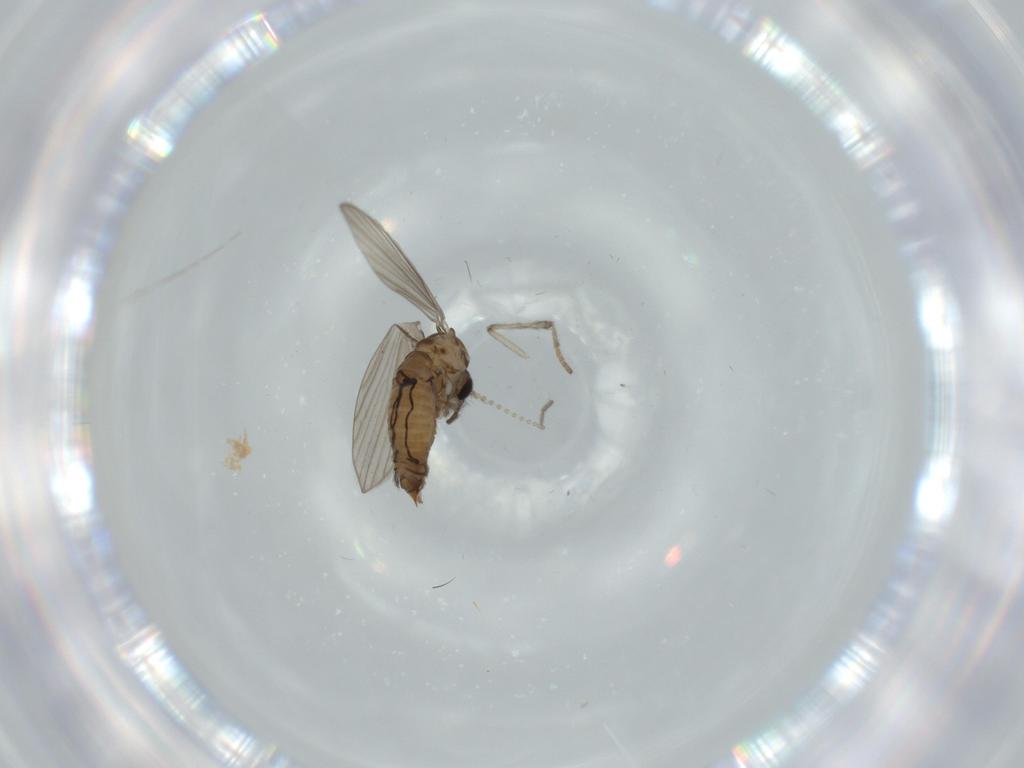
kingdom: Animalia
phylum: Arthropoda
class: Insecta
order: Diptera
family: Psychodidae
